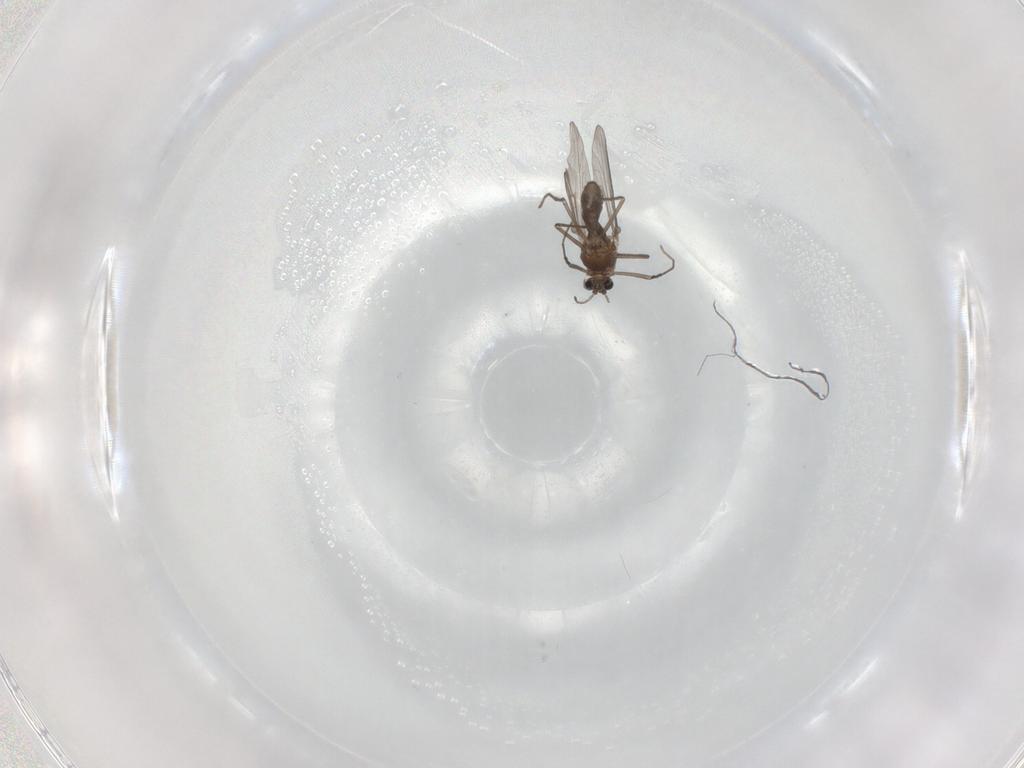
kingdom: Animalia
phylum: Arthropoda
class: Insecta
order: Diptera
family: Chironomidae
